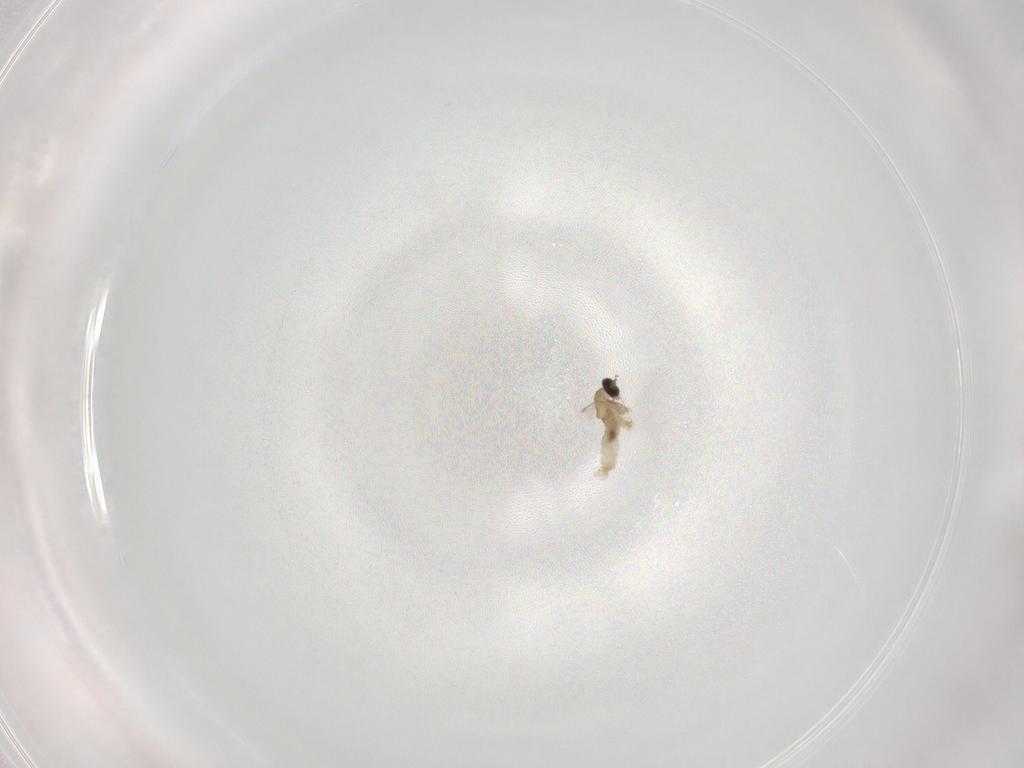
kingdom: Animalia
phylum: Arthropoda
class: Insecta
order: Diptera
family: Cecidomyiidae
